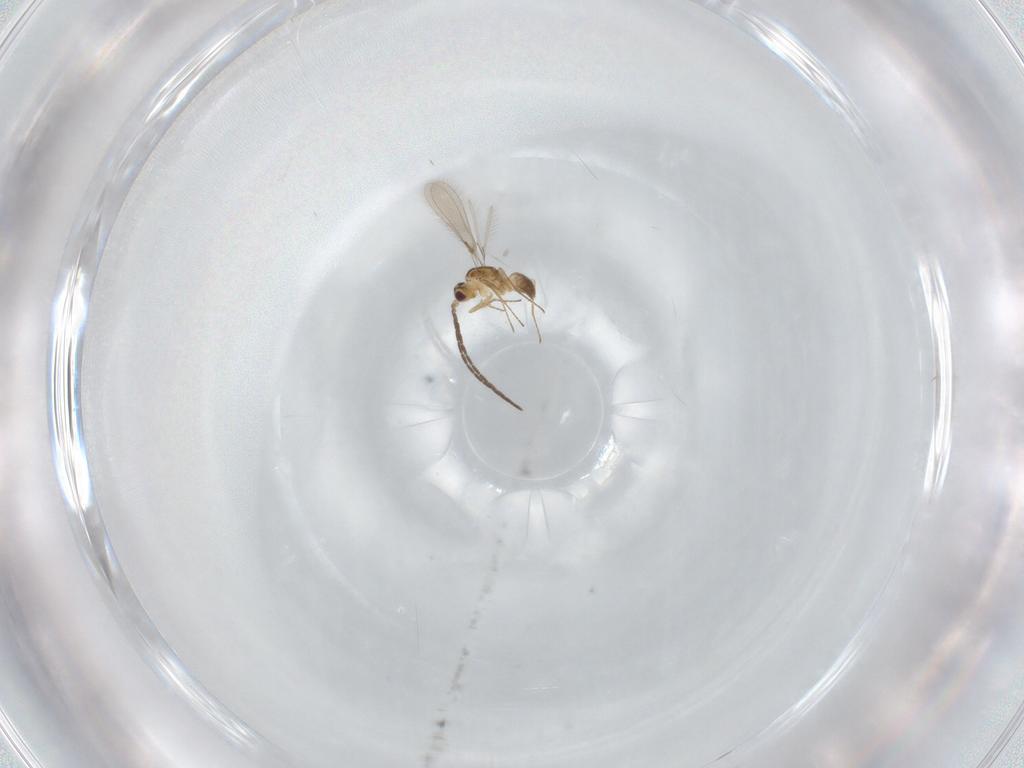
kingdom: Animalia
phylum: Arthropoda
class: Insecta
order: Hymenoptera
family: Mymaridae
